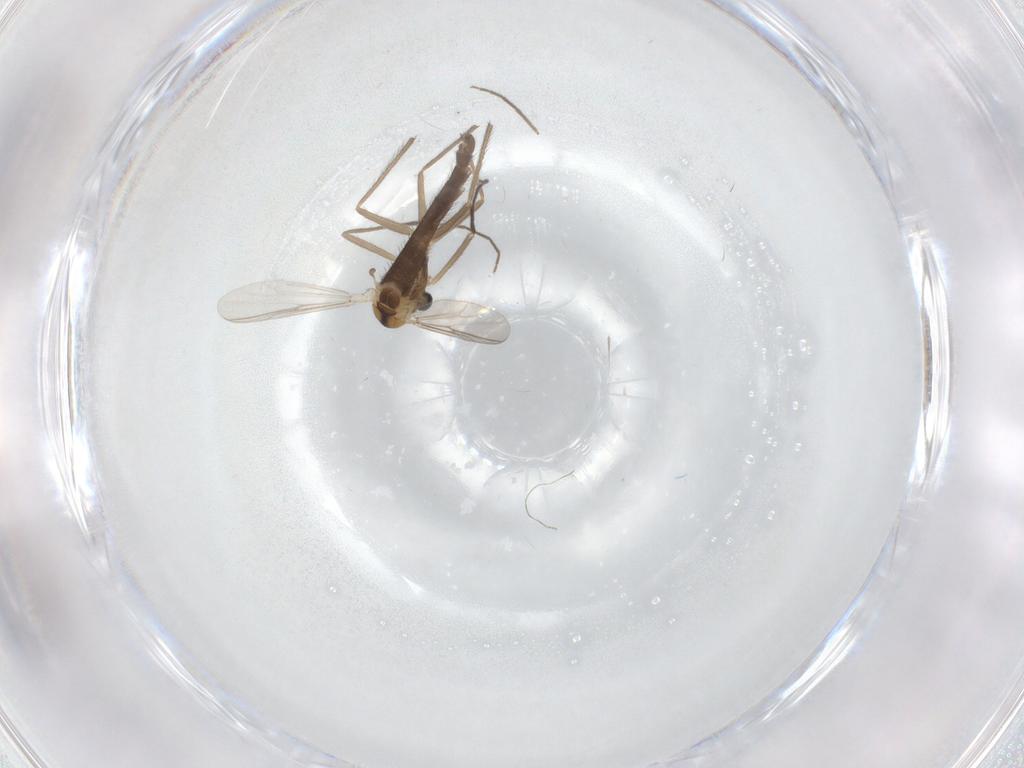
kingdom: Animalia
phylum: Arthropoda
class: Insecta
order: Diptera
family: Chironomidae
